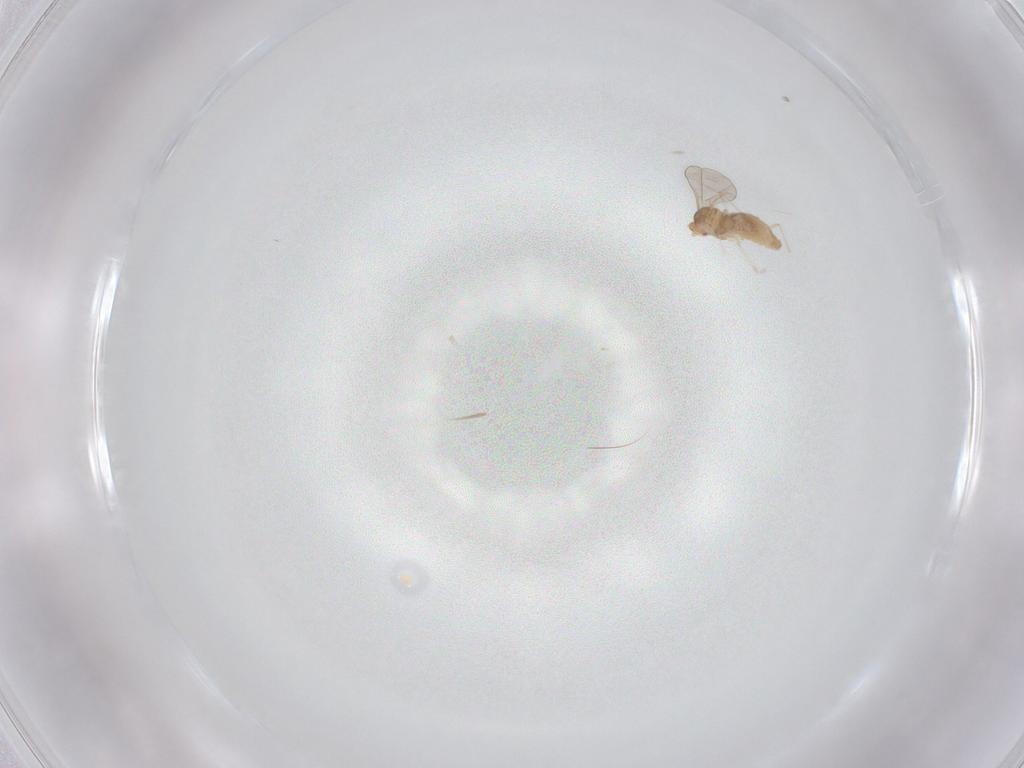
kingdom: Animalia
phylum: Arthropoda
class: Insecta
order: Diptera
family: Cecidomyiidae
